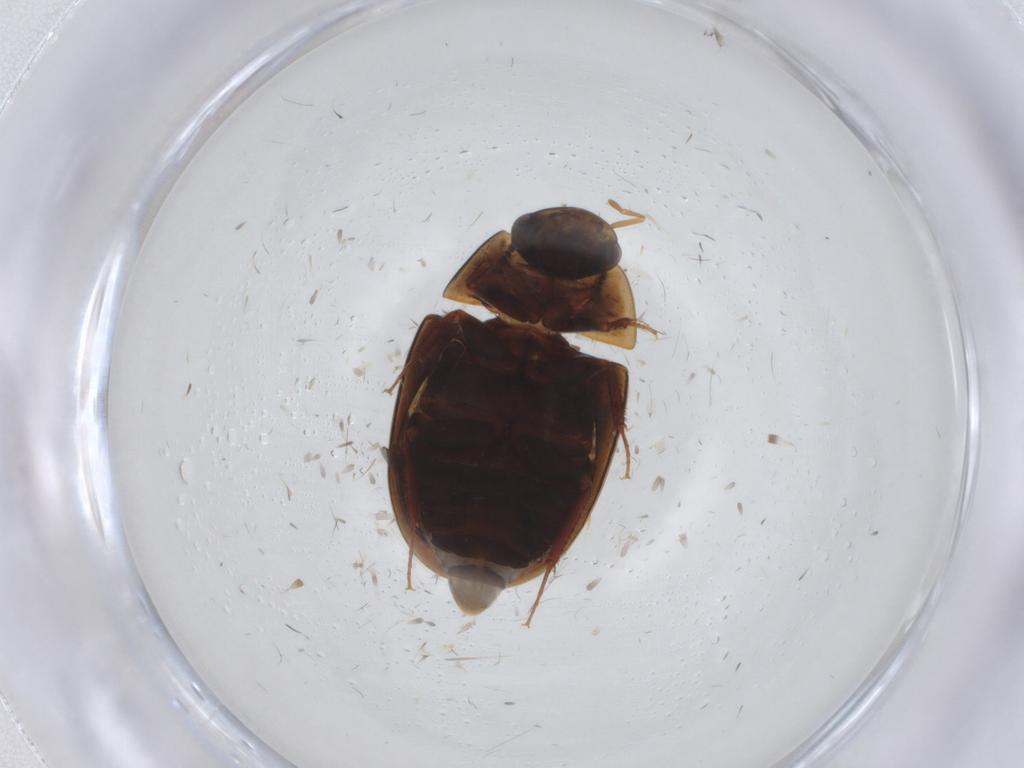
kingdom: Animalia
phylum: Arthropoda
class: Insecta
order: Coleoptera
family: Hydrophilidae
